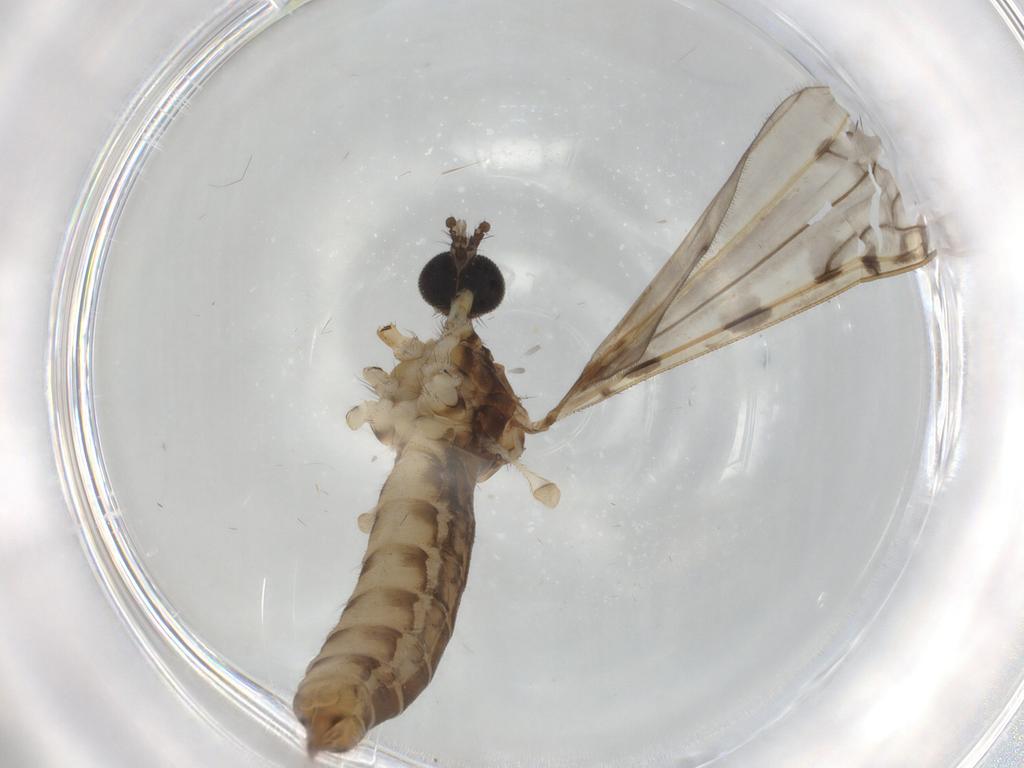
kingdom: Animalia
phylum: Arthropoda
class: Insecta
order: Diptera
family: Limoniidae
